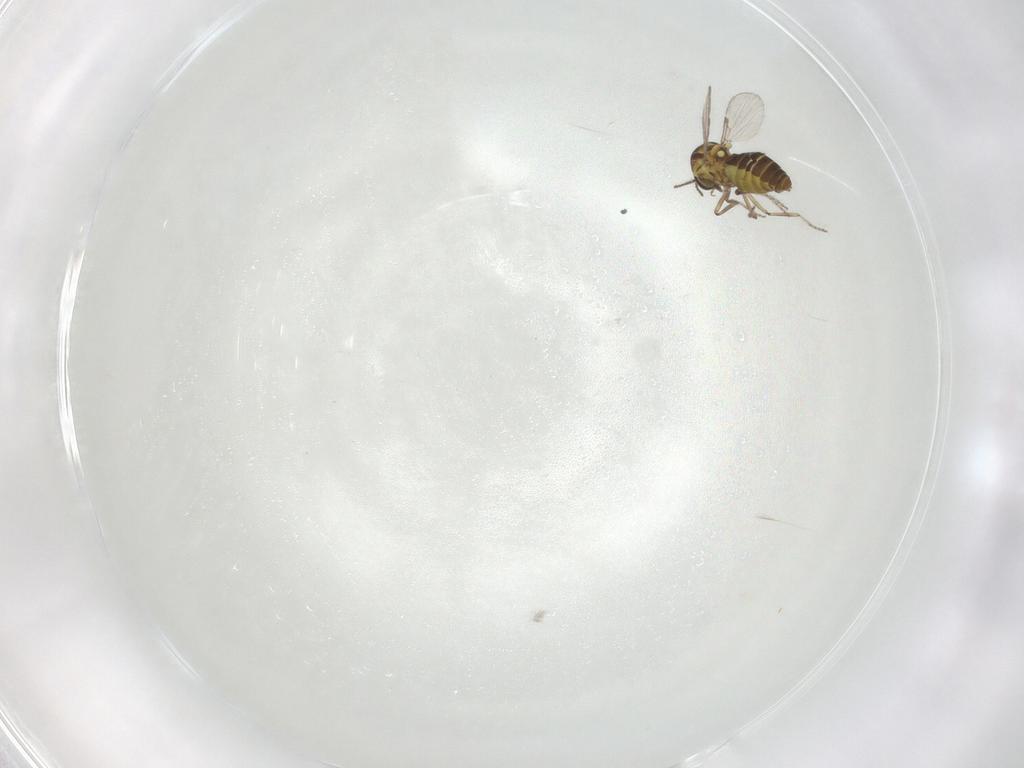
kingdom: Animalia
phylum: Arthropoda
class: Insecta
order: Diptera
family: Ceratopogonidae
